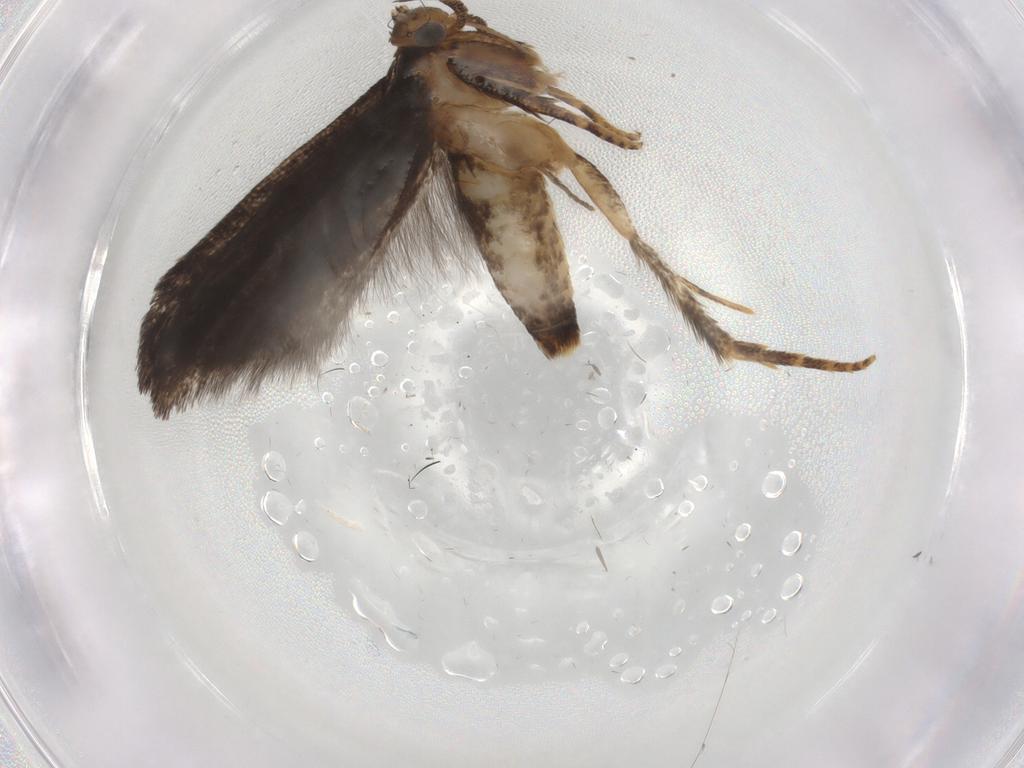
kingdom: Animalia
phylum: Arthropoda
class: Insecta
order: Lepidoptera
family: Gelechiidae
